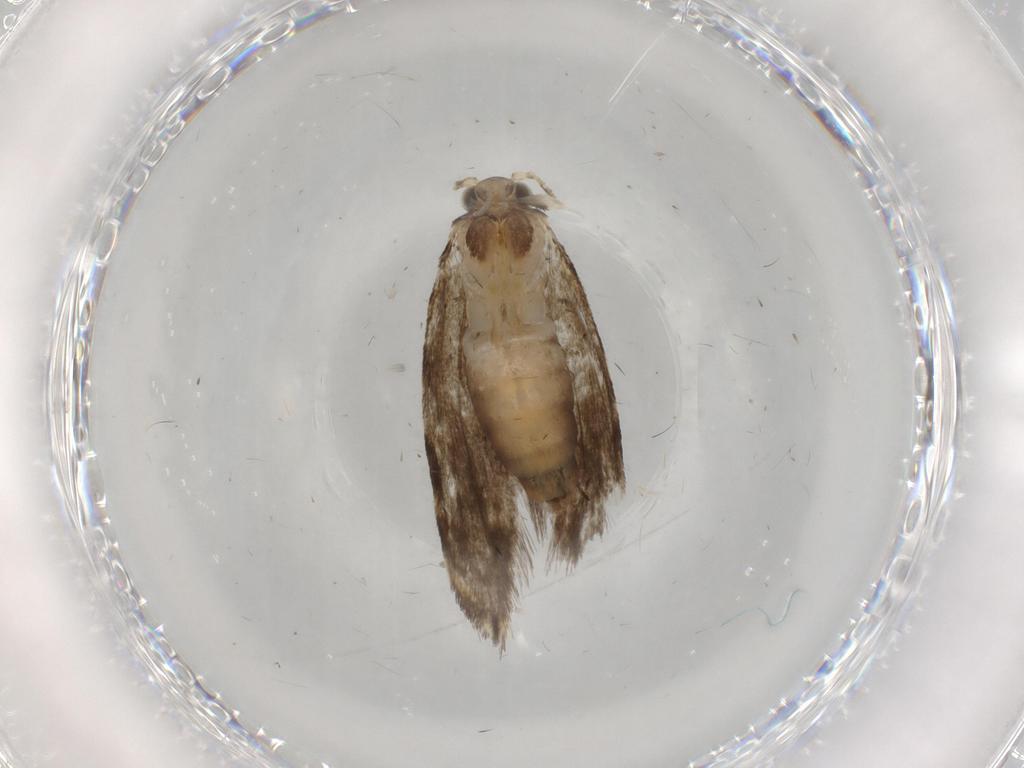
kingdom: Animalia
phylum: Arthropoda
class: Insecta
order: Lepidoptera
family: Tineidae
